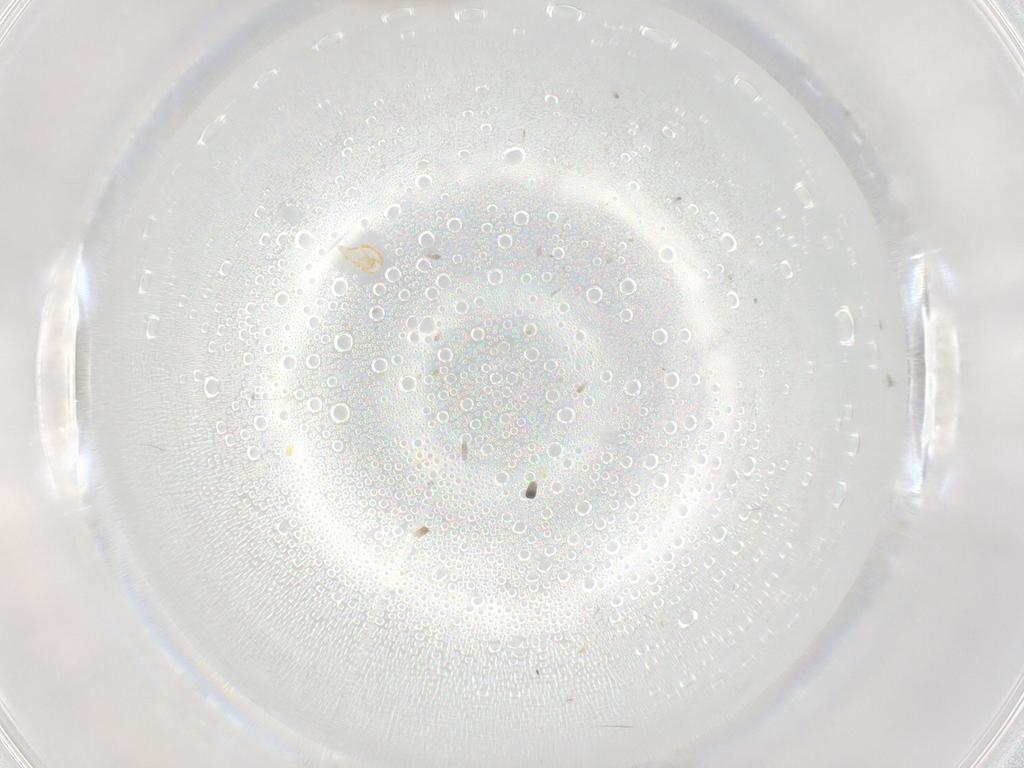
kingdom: Animalia
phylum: Arthropoda
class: Insecta
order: Diptera
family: Cecidomyiidae
